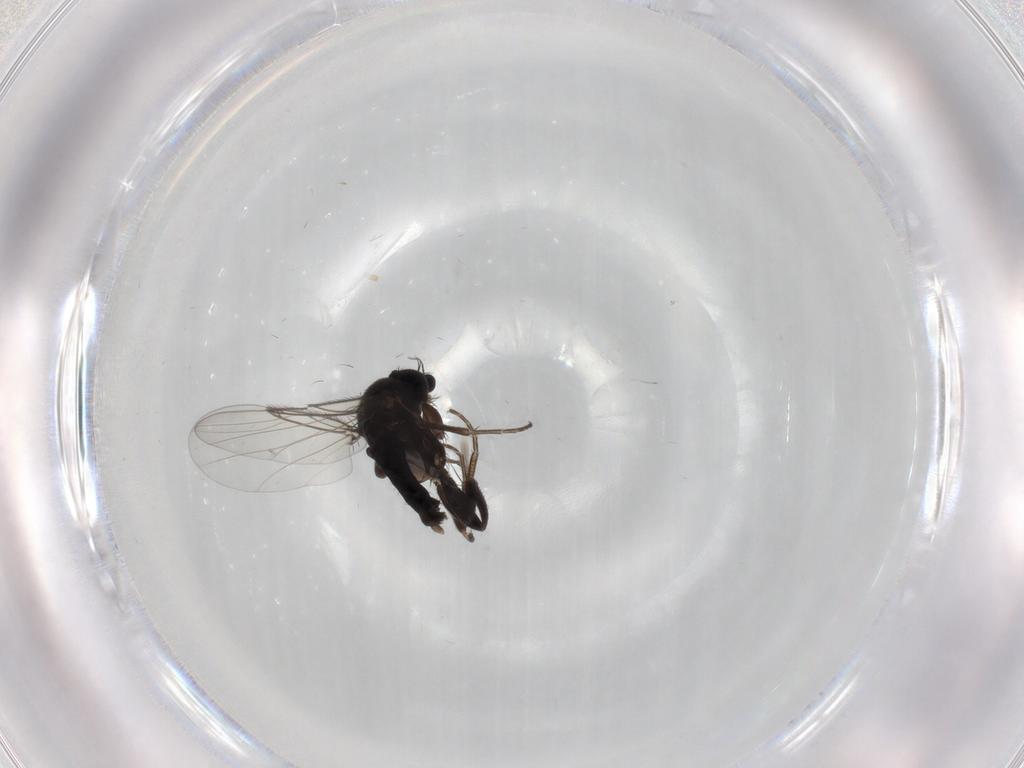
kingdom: Animalia
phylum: Arthropoda
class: Insecta
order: Diptera
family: Phoridae
